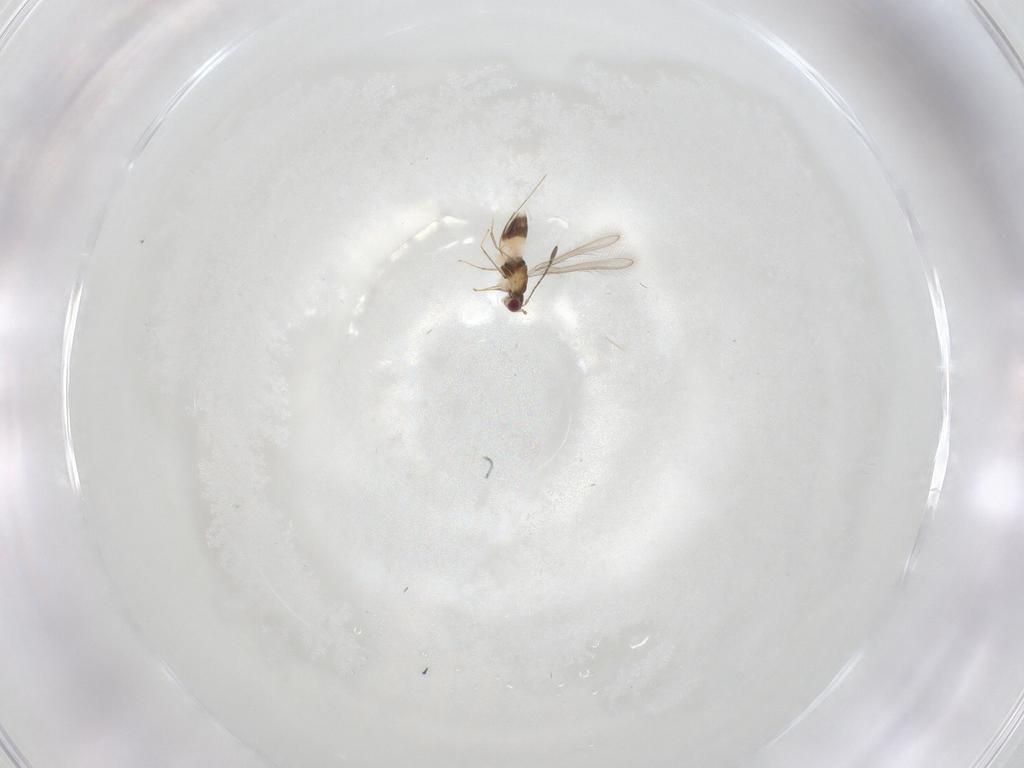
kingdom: Animalia
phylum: Arthropoda
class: Insecta
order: Hymenoptera
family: Mymaridae
